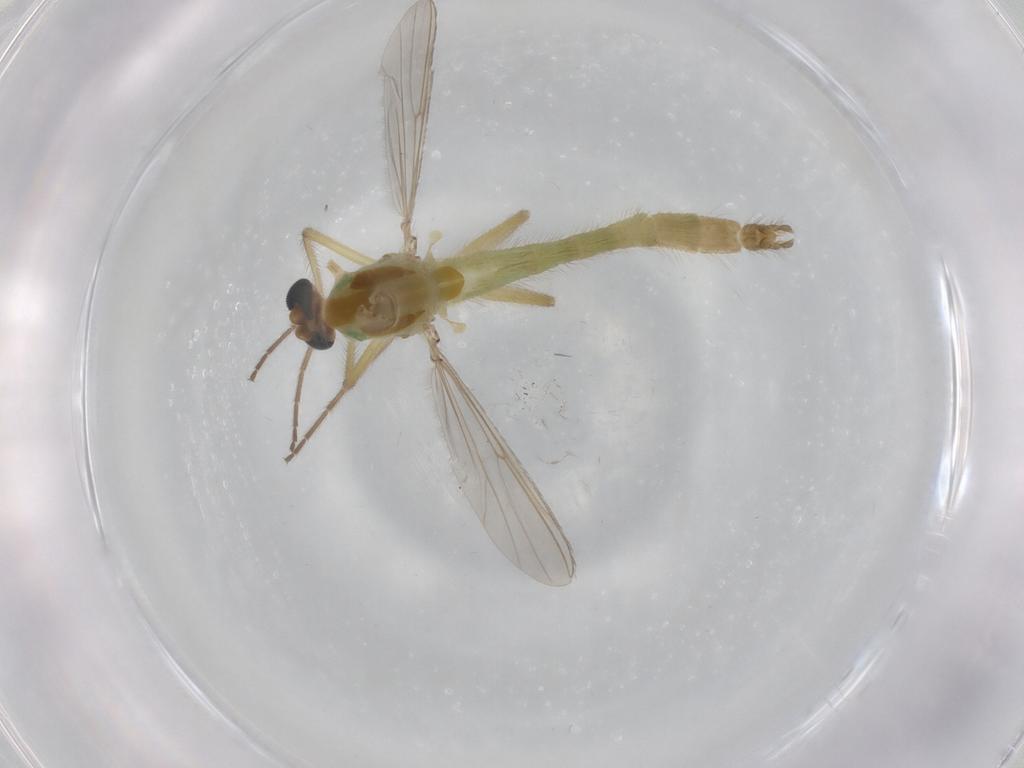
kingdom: Animalia
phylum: Arthropoda
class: Insecta
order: Diptera
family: Chironomidae
